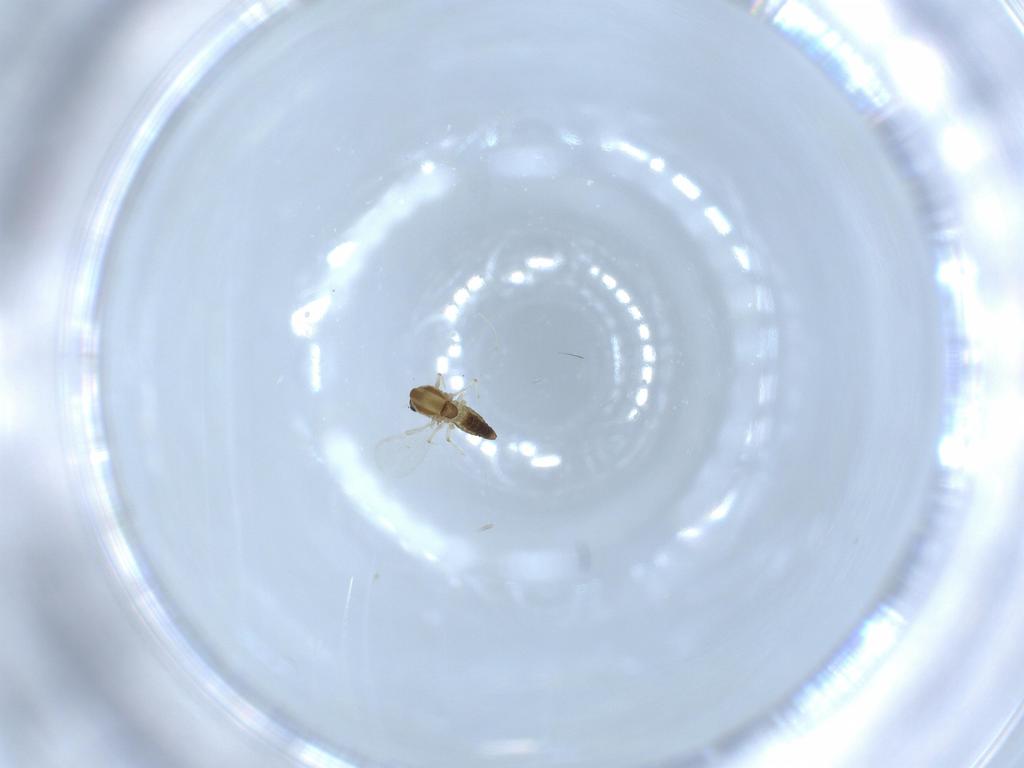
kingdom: Animalia
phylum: Arthropoda
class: Insecta
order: Diptera
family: Chironomidae
